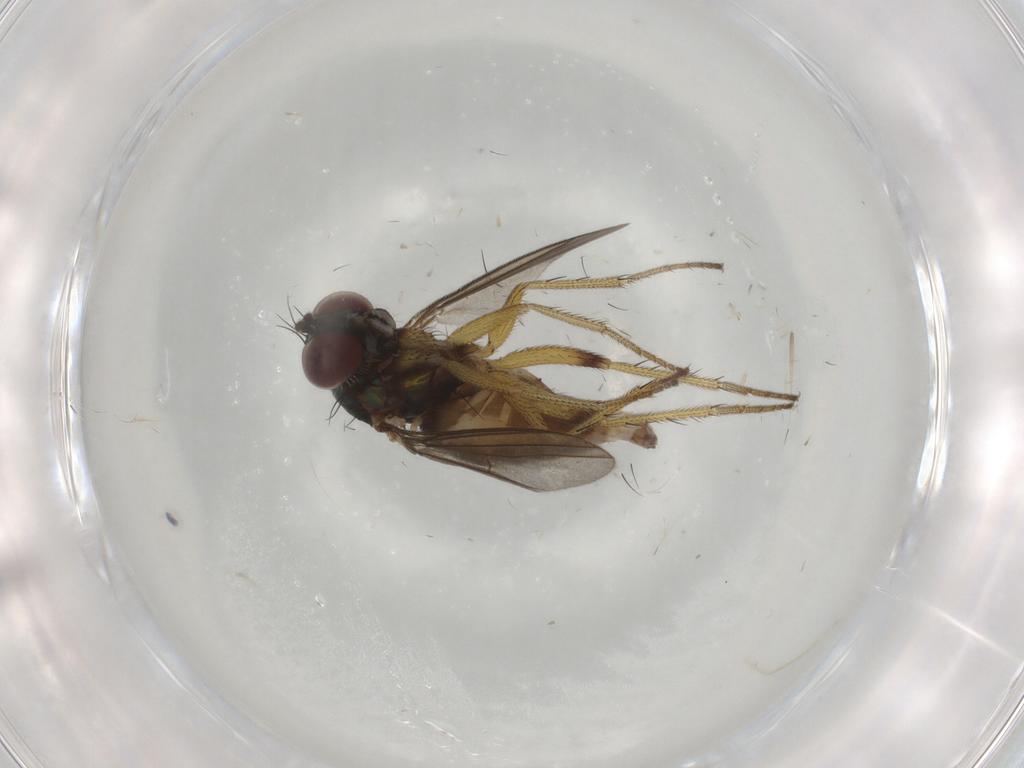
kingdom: Animalia
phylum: Arthropoda
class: Insecta
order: Diptera
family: Dolichopodidae
